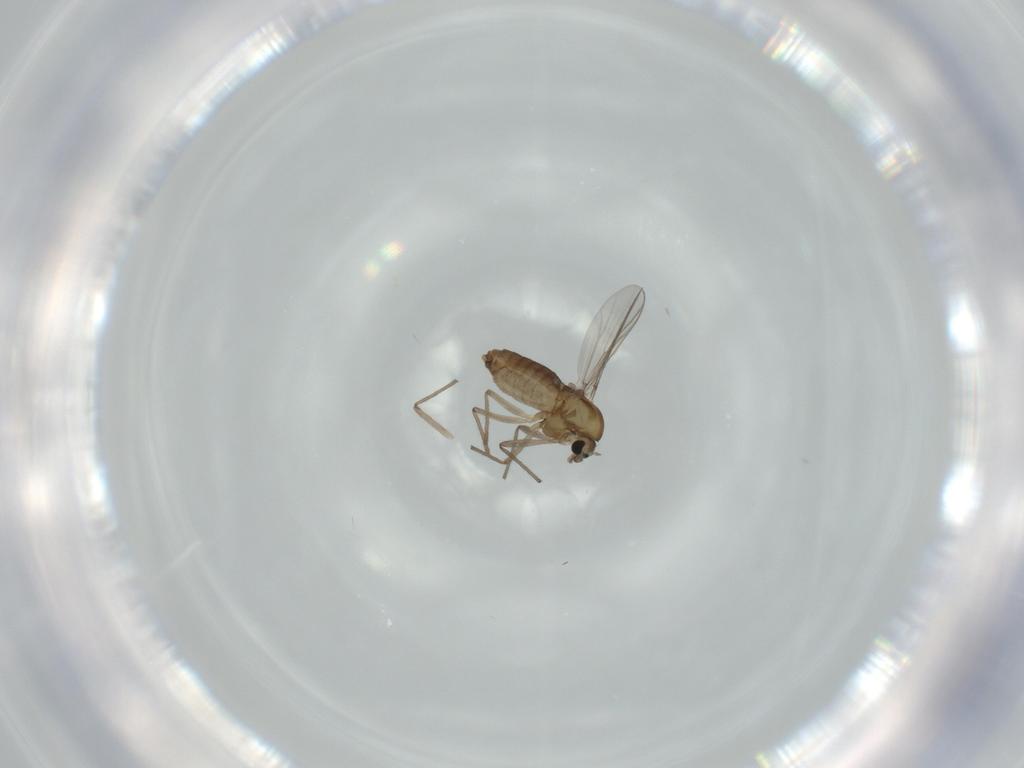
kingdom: Animalia
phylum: Arthropoda
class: Insecta
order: Diptera
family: Chironomidae
